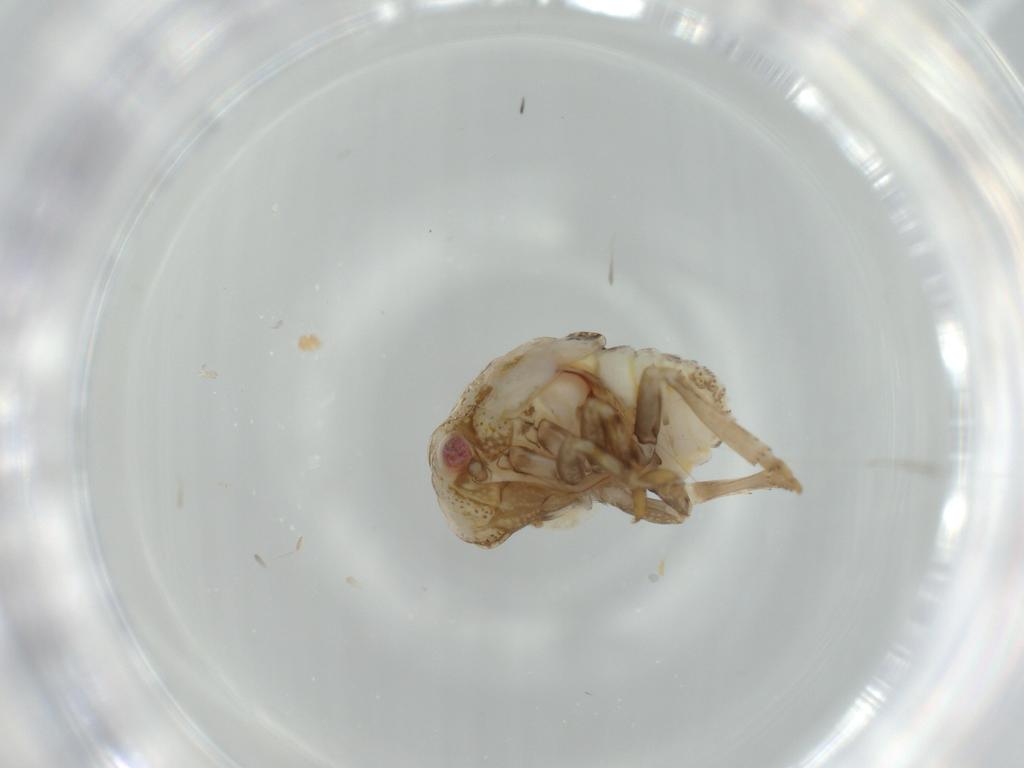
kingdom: Animalia
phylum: Arthropoda
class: Insecta
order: Hemiptera
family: Acanaloniidae
